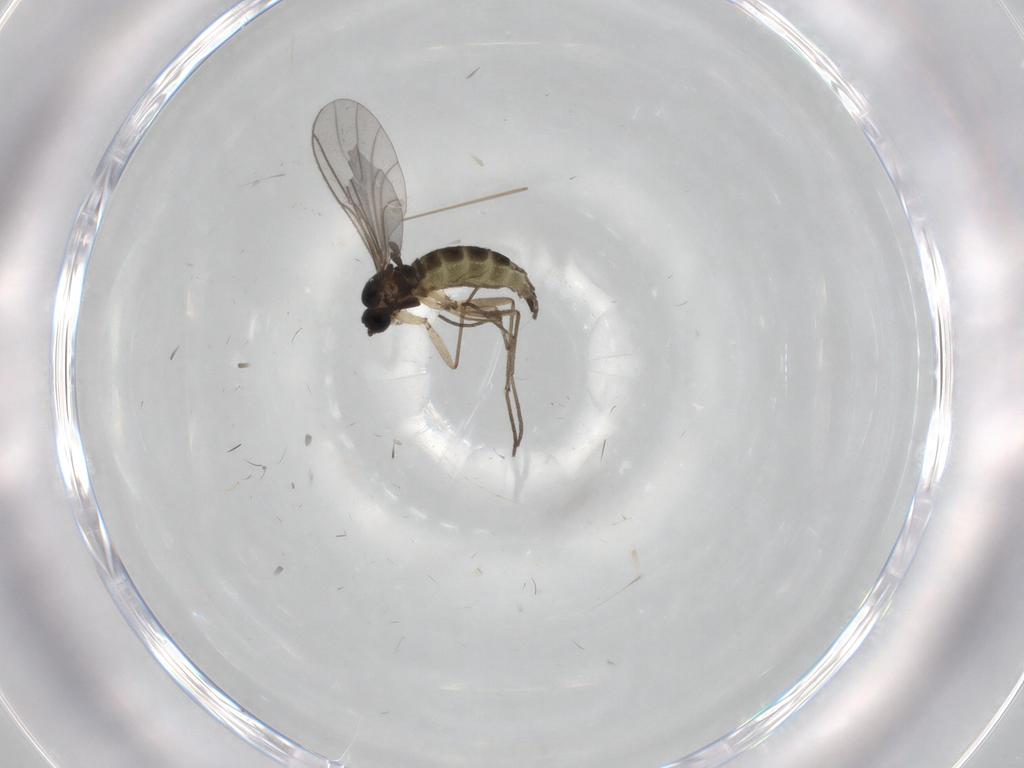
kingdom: Animalia
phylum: Arthropoda
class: Insecta
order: Diptera
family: Sciaridae
